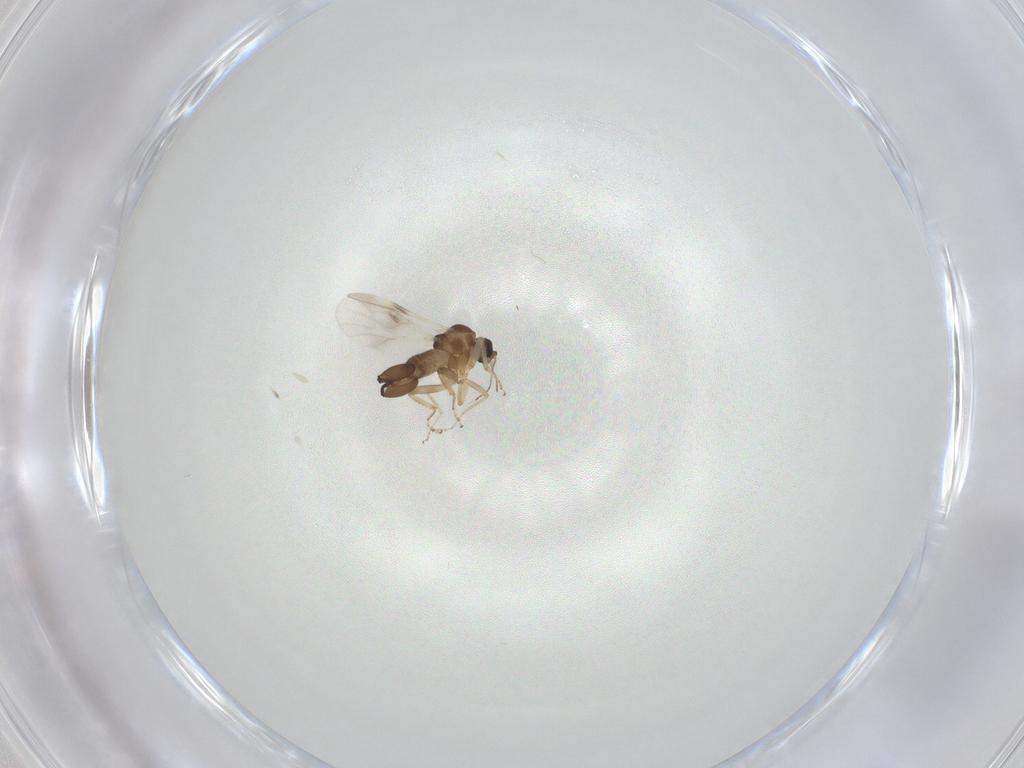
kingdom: Animalia
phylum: Arthropoda
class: Insecta
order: Diptera
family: Ceratopogonidae
